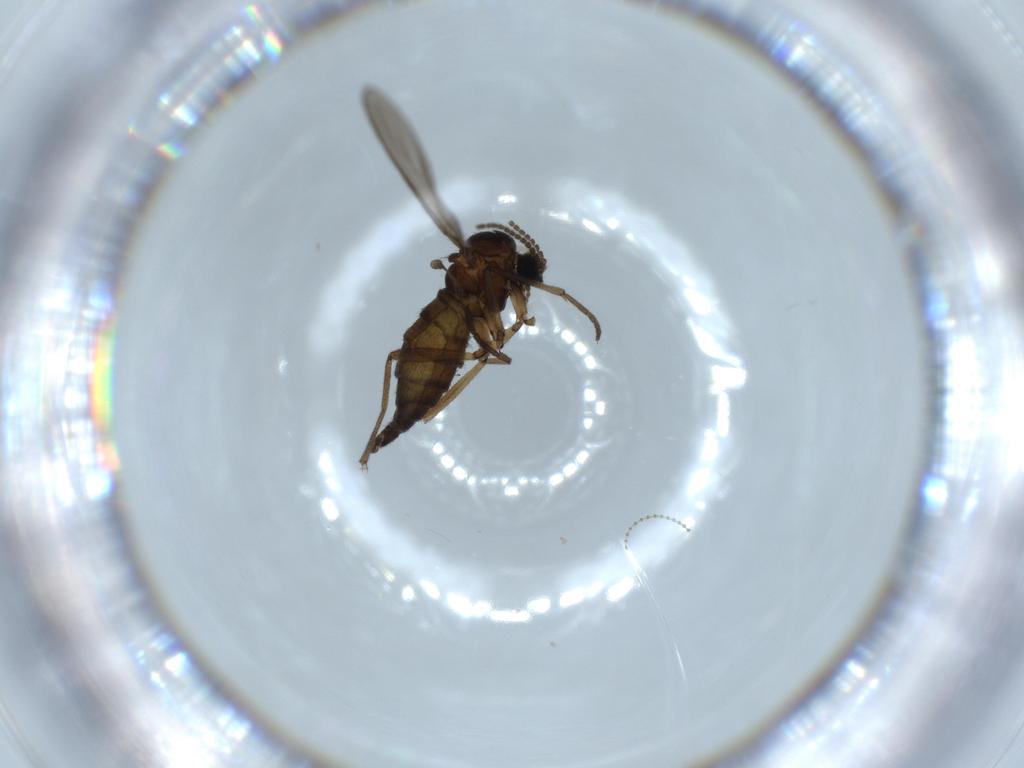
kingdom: Animalia
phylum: Arthropoda
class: Insecta
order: Diptera
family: Sciaridae
